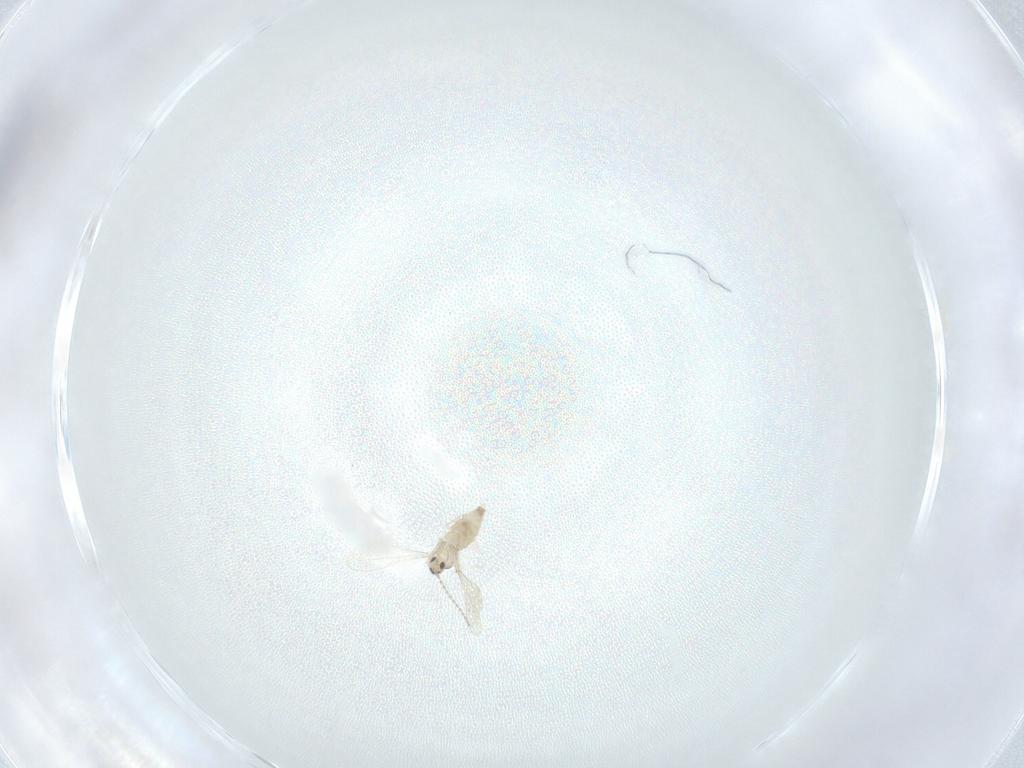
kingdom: Animalia
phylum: Arthropoda
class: Insecta
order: Diptera
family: Cecidomyiidae
